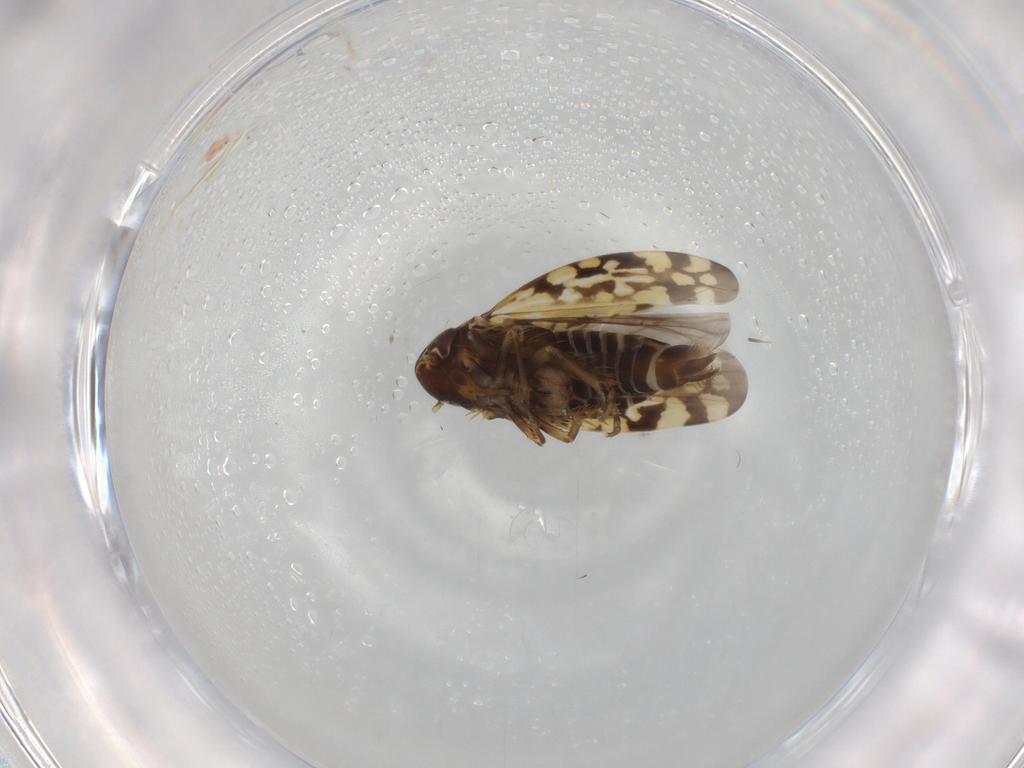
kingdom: Animalia
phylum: Arthropoda
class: Insecta
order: Hemiptera
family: Cicadellidae
